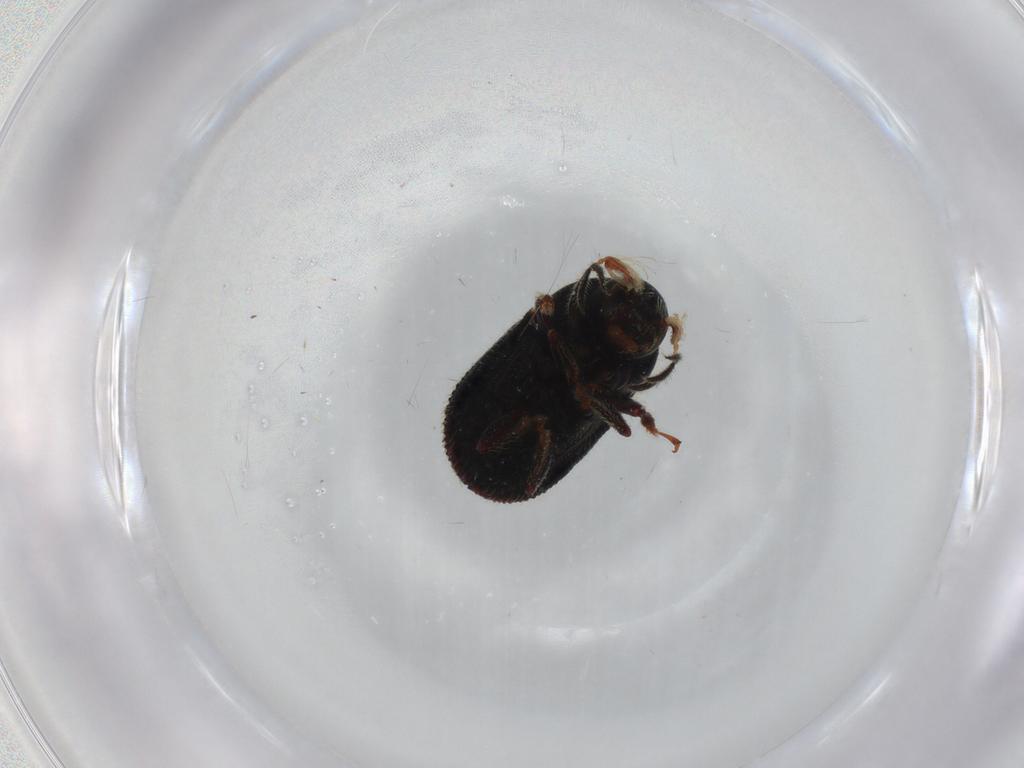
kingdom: Animalia
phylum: Arthropoda
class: Insecta
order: Coleoptera
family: Curculionidae
